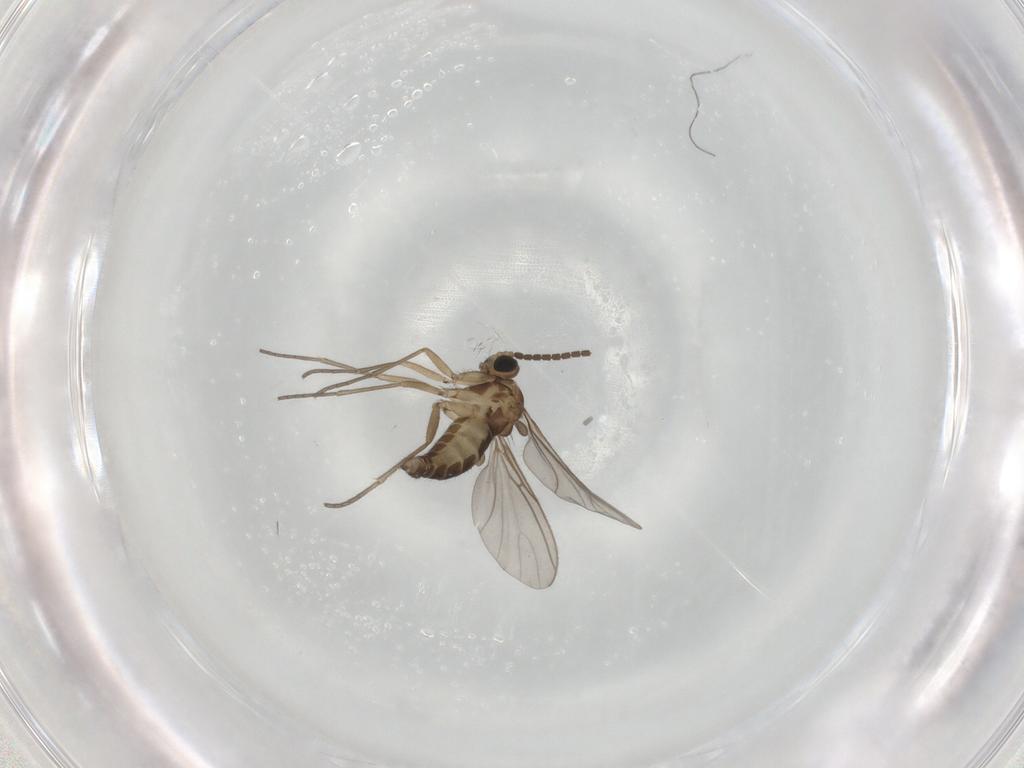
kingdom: Animalia
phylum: Arthropoda
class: Insecta
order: Diptera
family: Sciaridae
